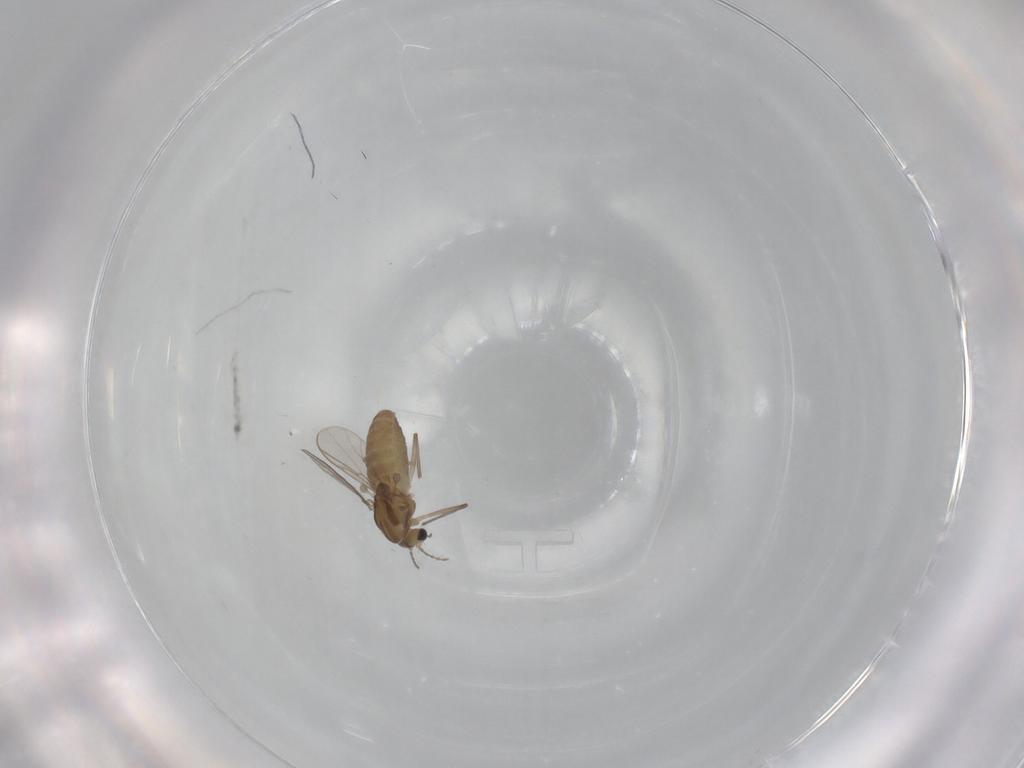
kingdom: Animalia
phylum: Arthropoda
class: Insecta
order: Diptera
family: Chironomidae
